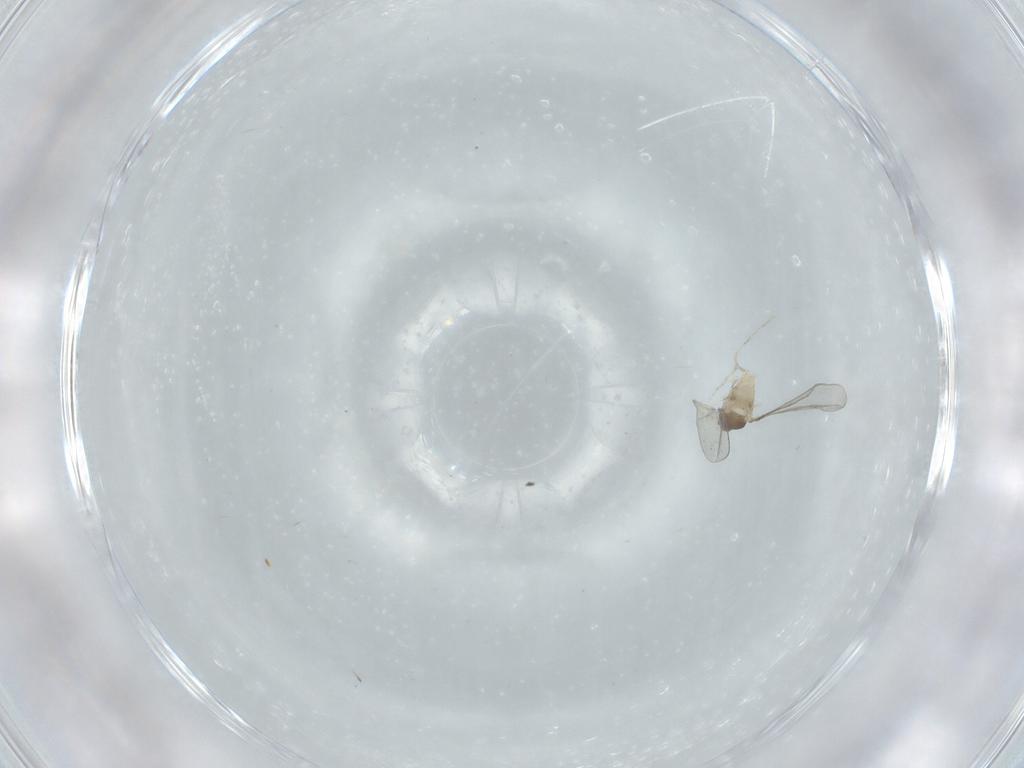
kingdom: Animalia
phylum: Arthropoda
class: Insecta
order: Diptera
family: Cecidomyiidae
